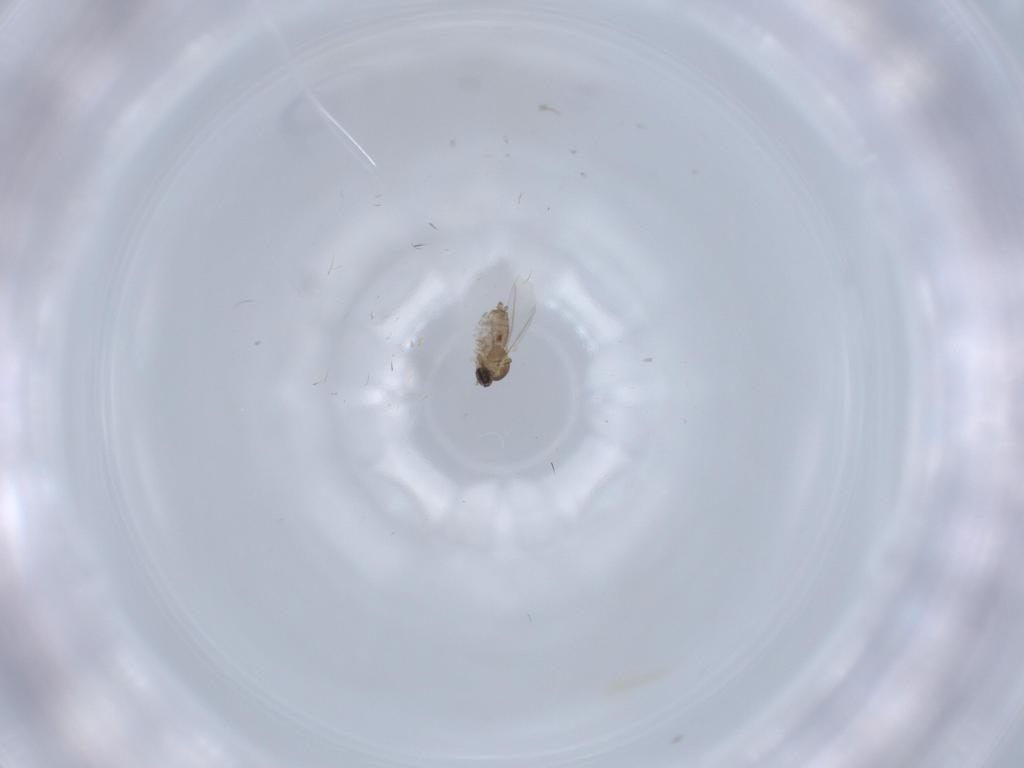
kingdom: Animalia
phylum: Arthropoda
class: Insecta
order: Diptera
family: Cecidomyiidae
